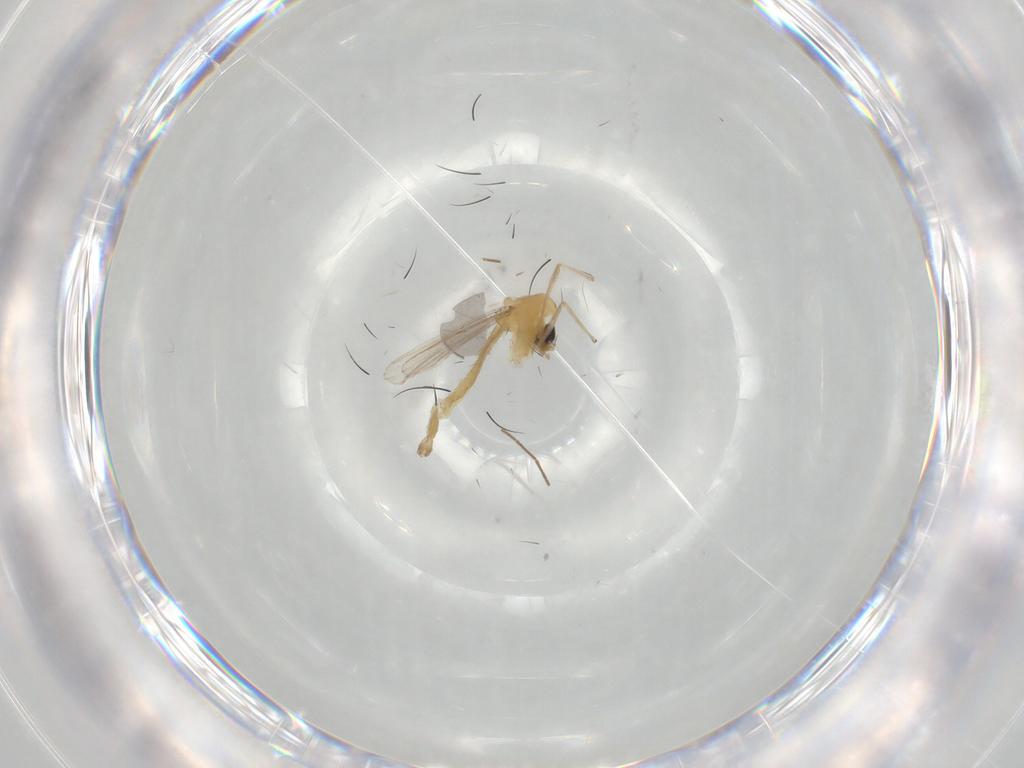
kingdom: Animalia
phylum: Arthropoda
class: Insecta
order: Diptera
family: Chironomidae
